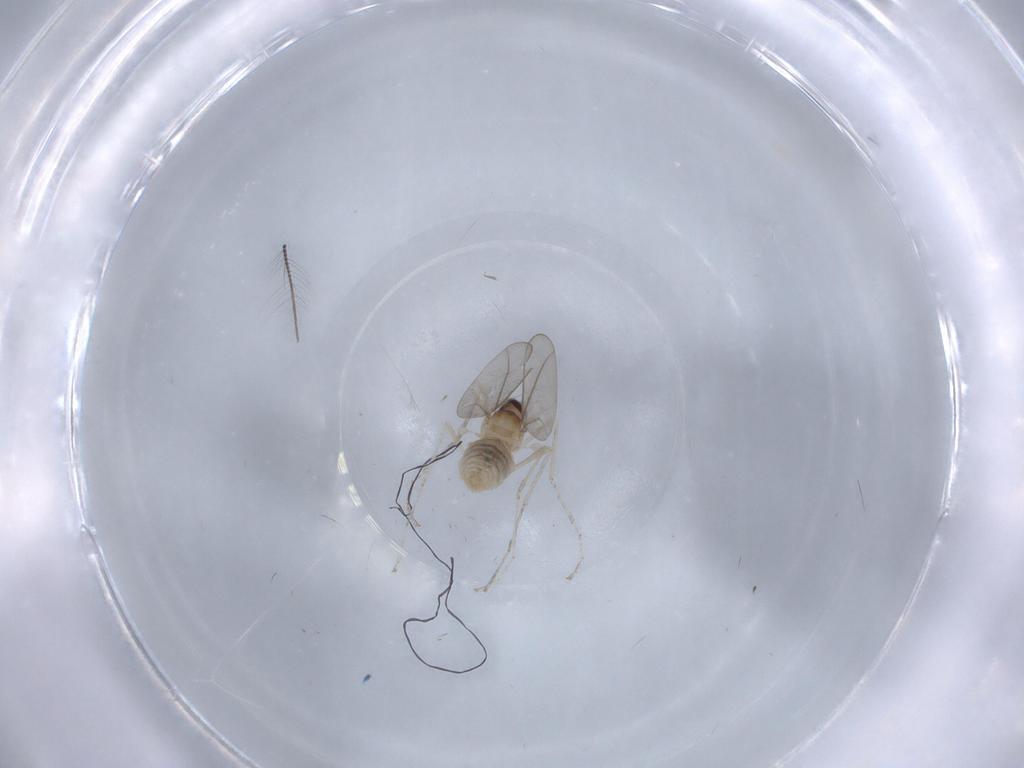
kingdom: Animalia
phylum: Arthropoda
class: Insecta
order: Diptera
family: Cecidomyiidae
